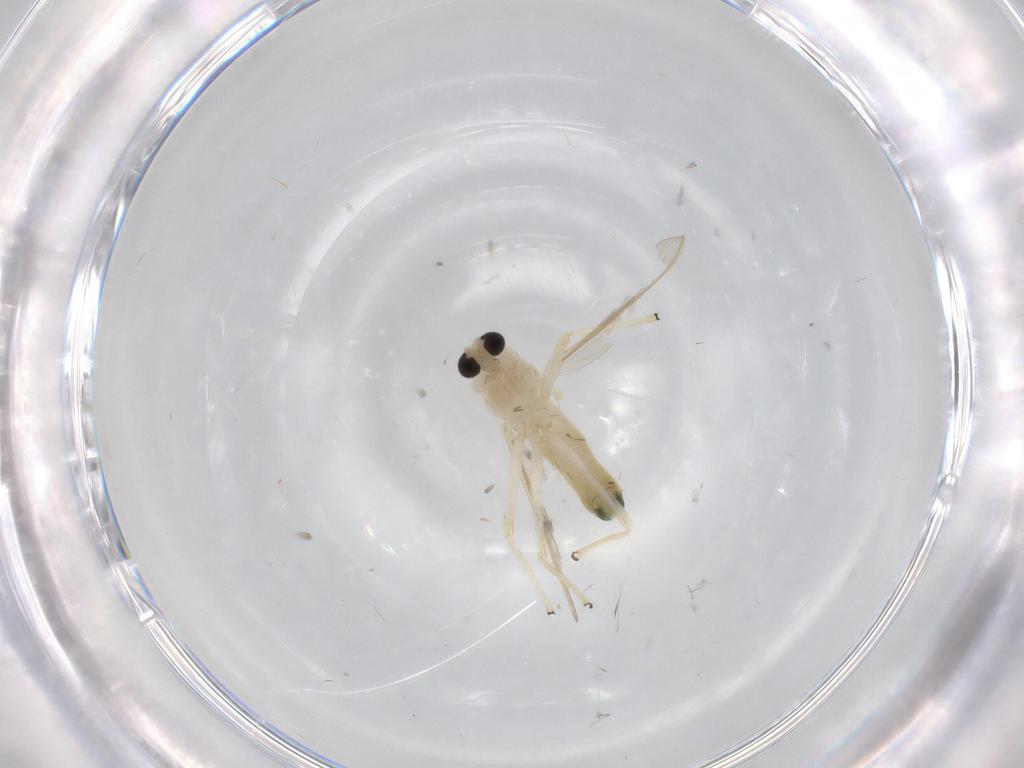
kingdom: Animalia
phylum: Arthropoda
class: Insecta
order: Diptera
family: Chironomidae
